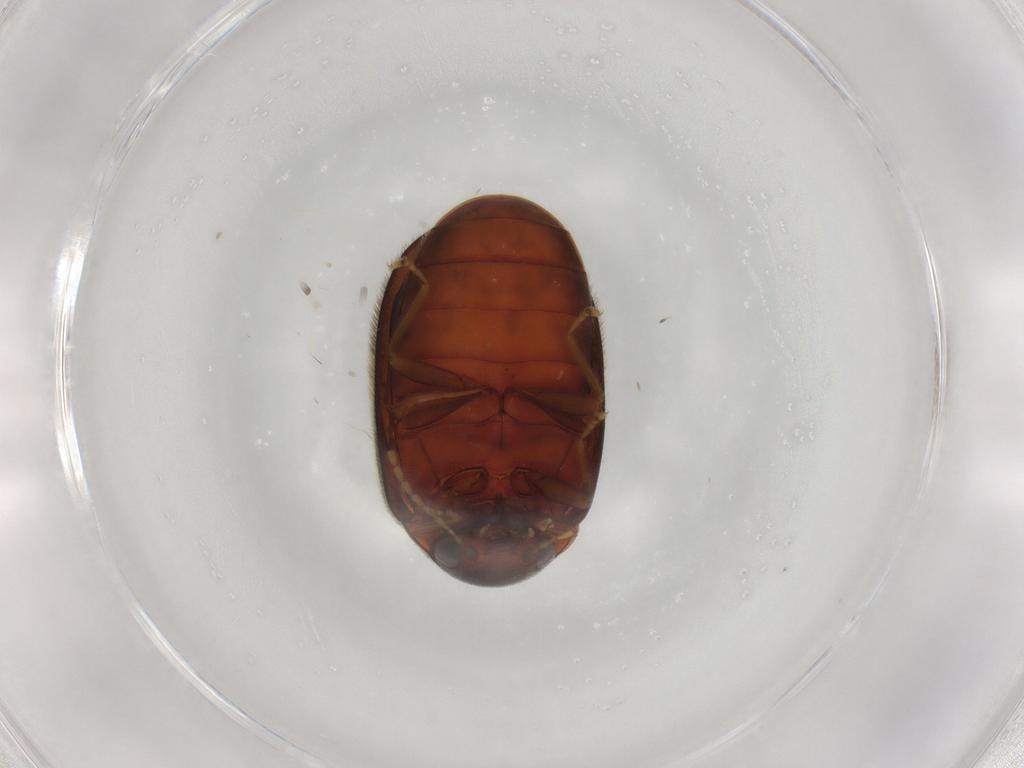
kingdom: Animalia
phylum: Arthropoda
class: Insecta
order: Coleoptera
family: Scirtidae
